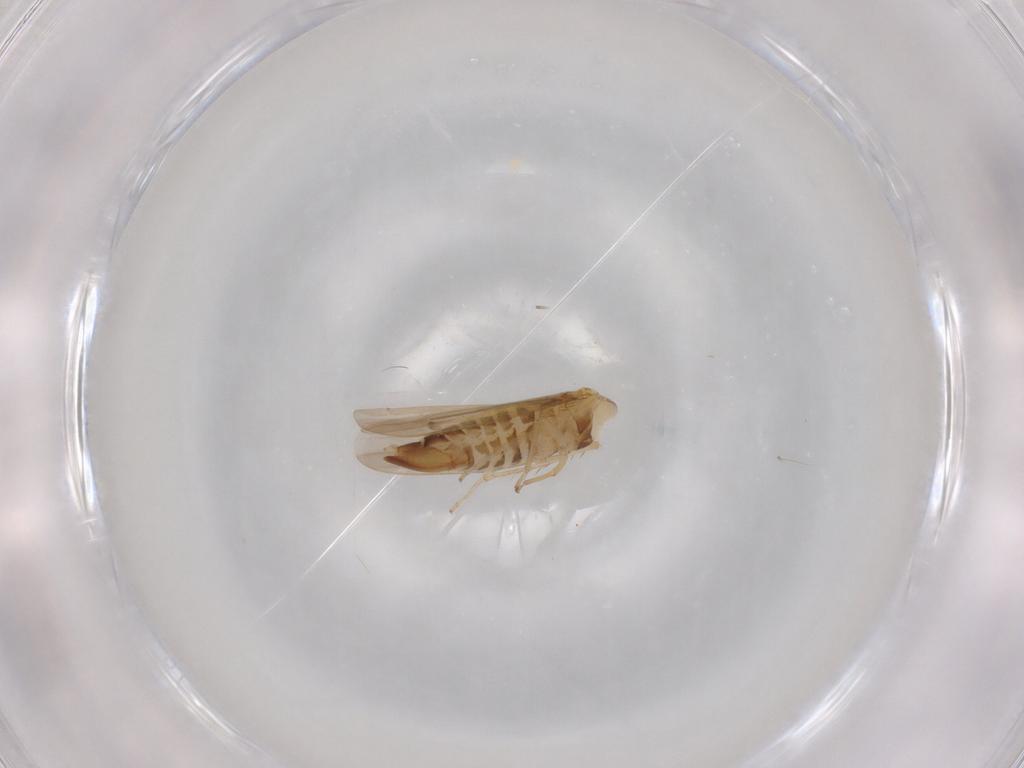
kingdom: Animalia
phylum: Arthropoda
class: Insecta
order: Hemiptera
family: Cicadellidae
